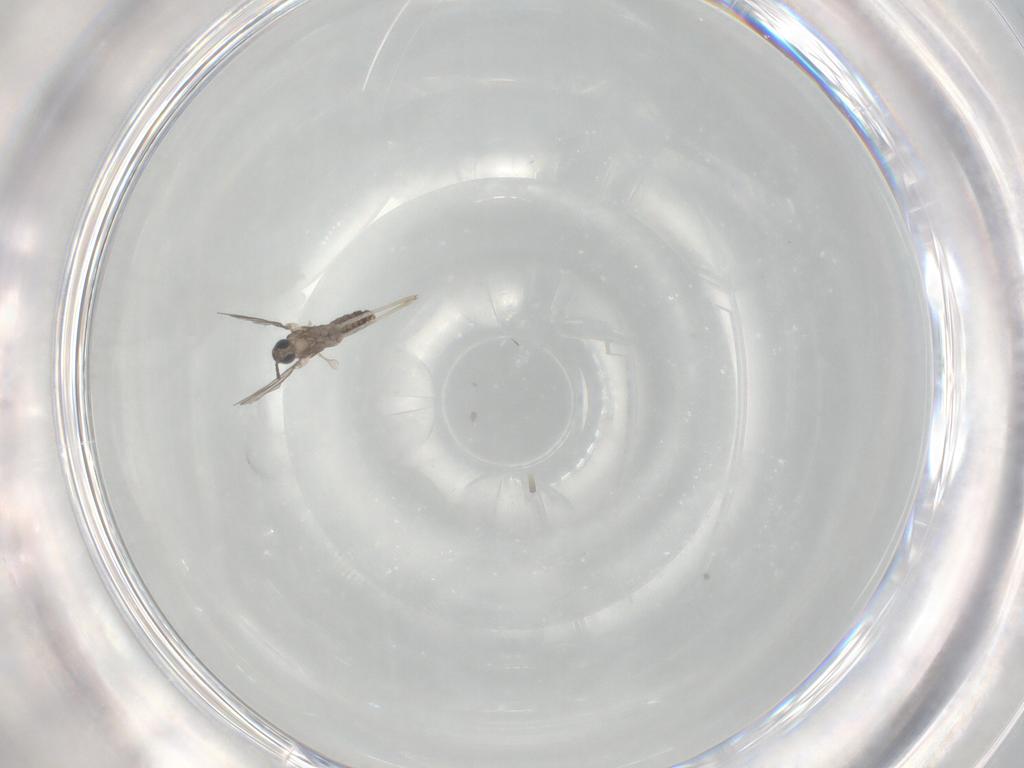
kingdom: Animalia
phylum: Arthropoda
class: Insecta
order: Diptera
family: Cecidomyiidae
